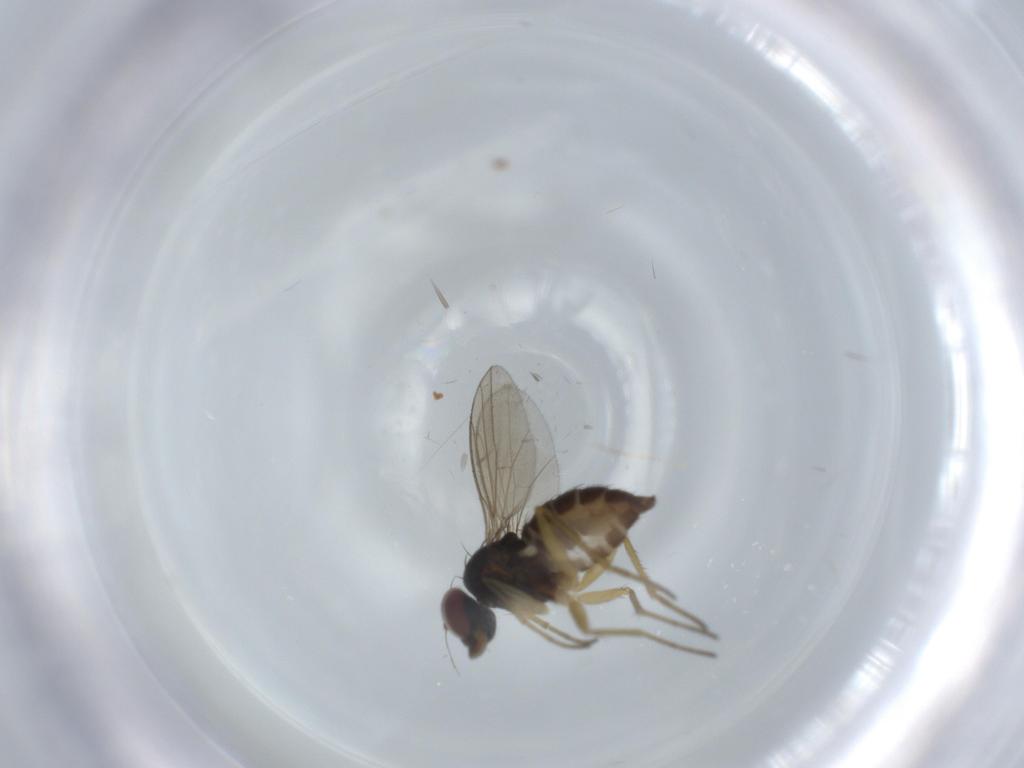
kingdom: Animalia
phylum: Arthropoda
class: Insecta
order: Diptera
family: Dolichopodidae
